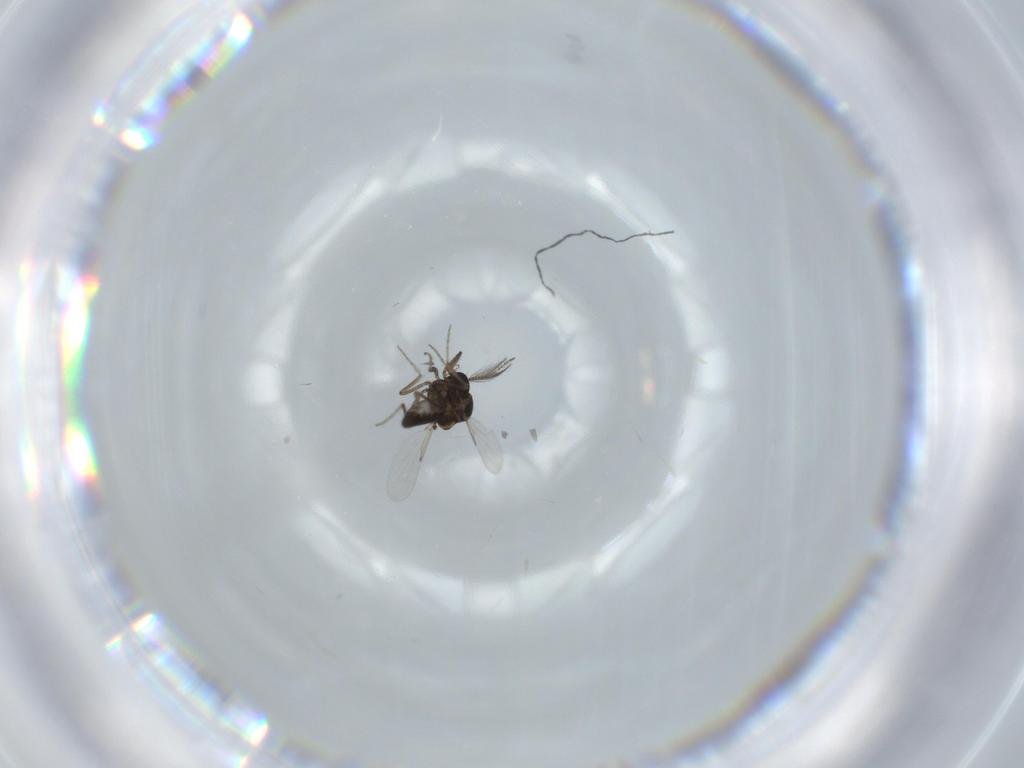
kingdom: Animalia
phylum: Arthropoda
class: Insecta
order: Diptera
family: Ceratopogonidae
